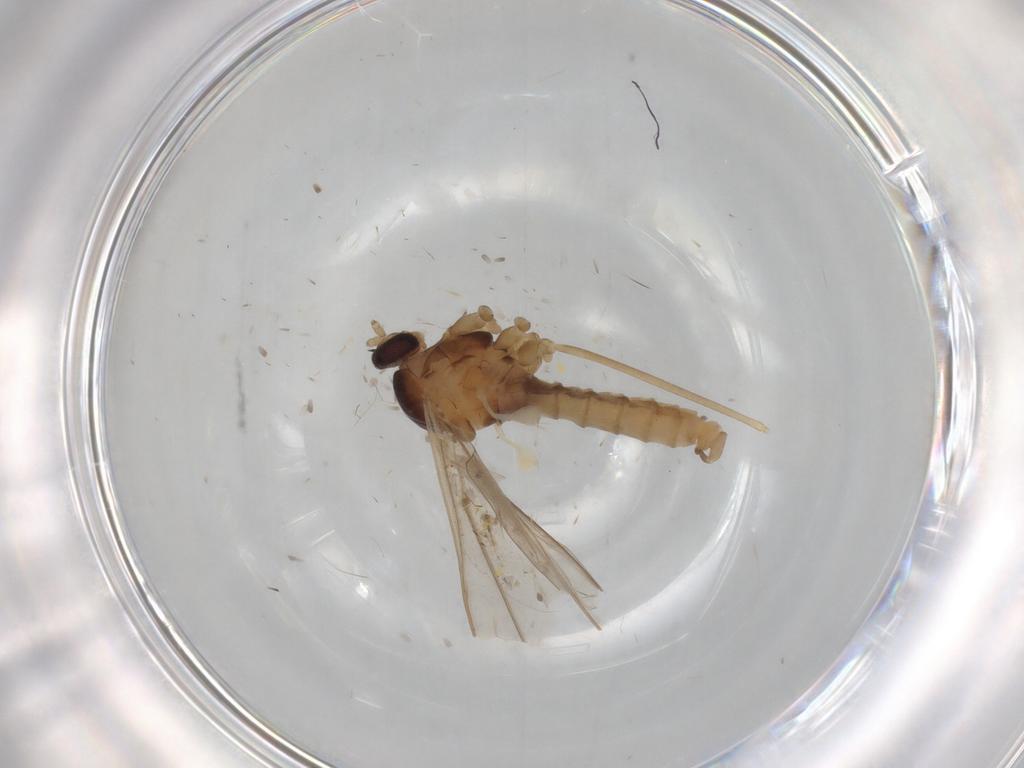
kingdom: Animalia
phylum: Arthropoda
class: Insecta
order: Diptera
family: Cecidomyiidae
